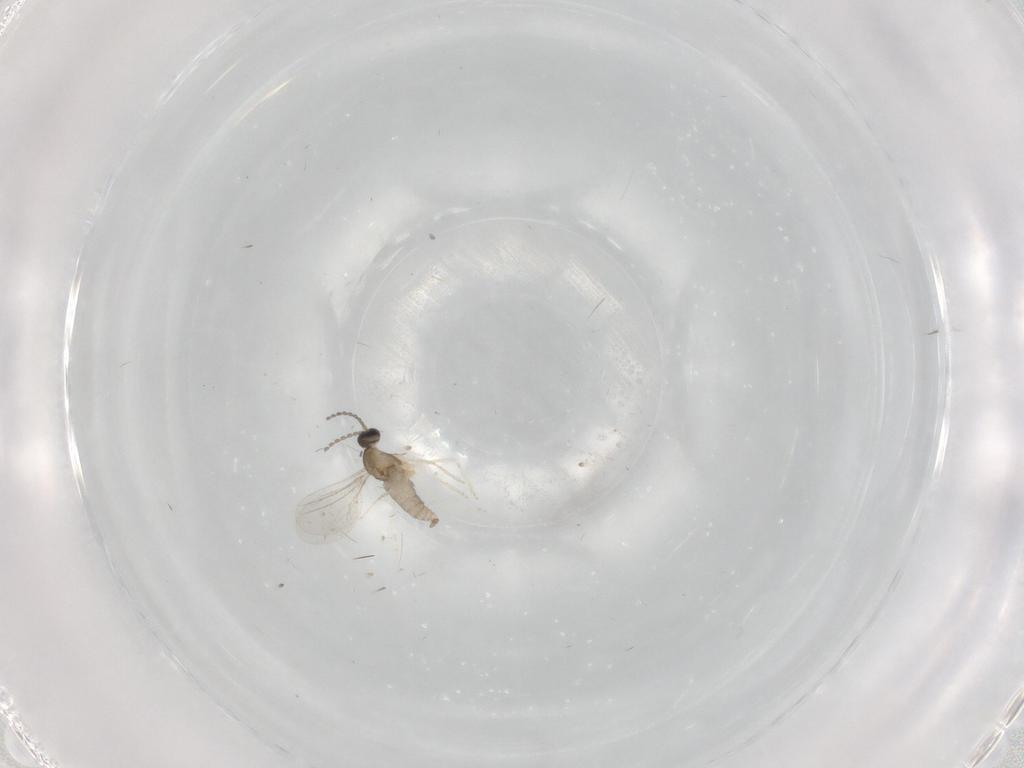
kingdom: Animalia
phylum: Arthropoda
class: Insecta
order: Diptera
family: Cecidomyiidae
